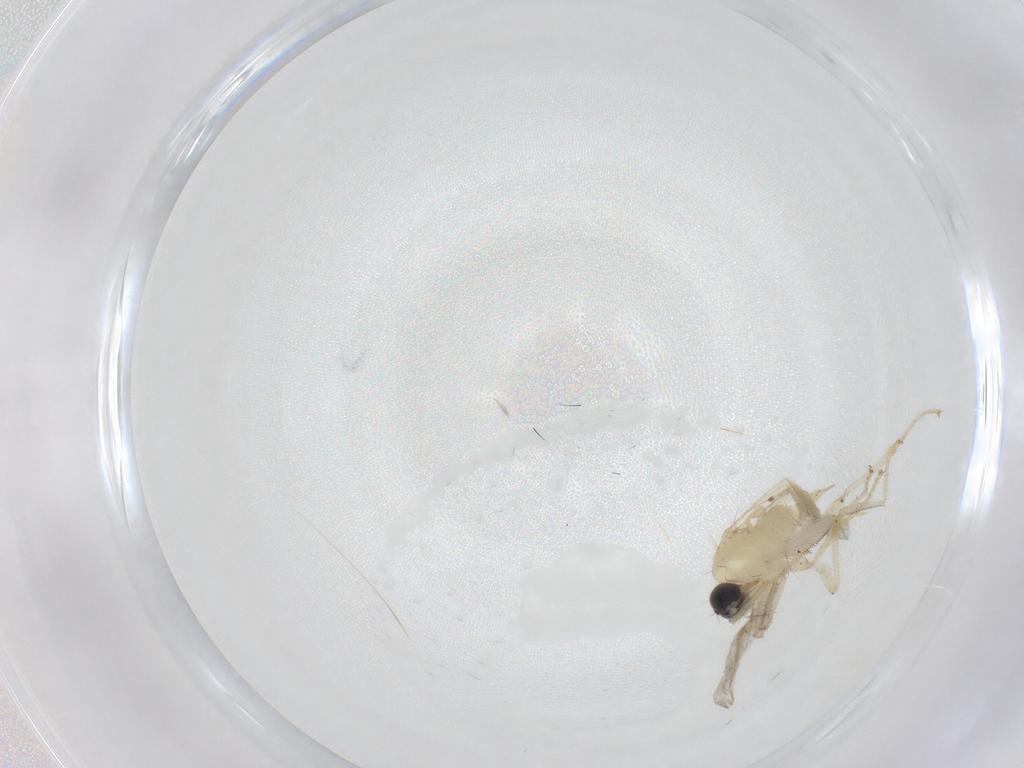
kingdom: Animalia
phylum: Arthropoda
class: Insecta
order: Diptera
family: Cecidomyiidae
